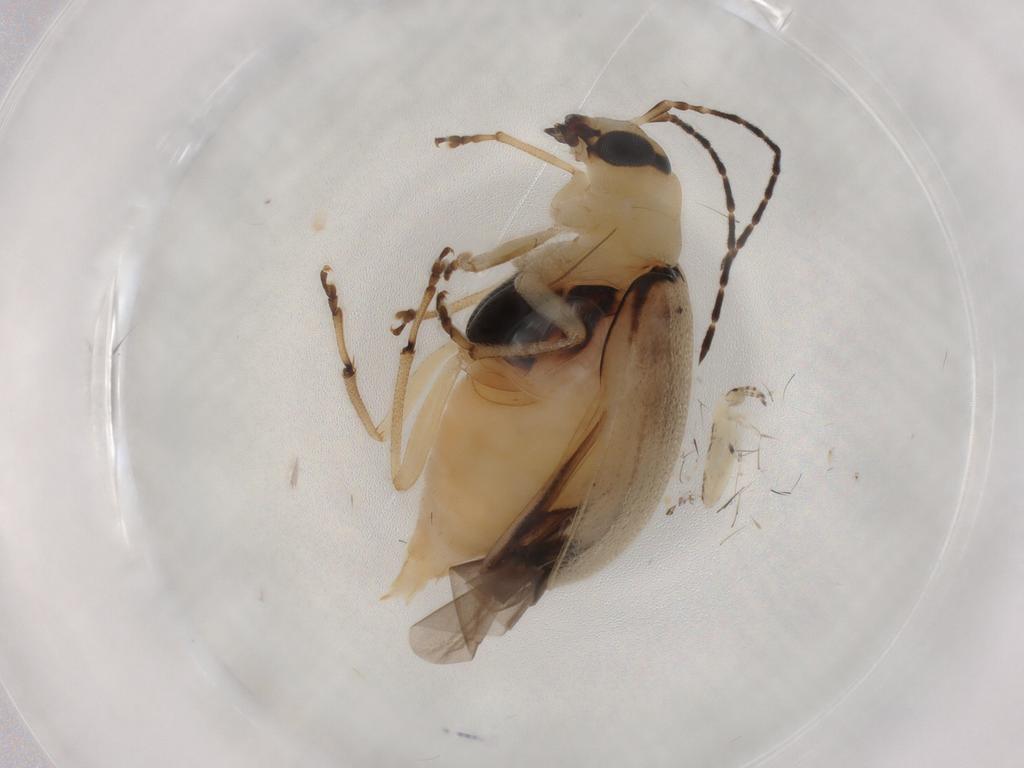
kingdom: Animalia
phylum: Arthropoda
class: Insecta
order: Coleoptera
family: Chrysomelidae
